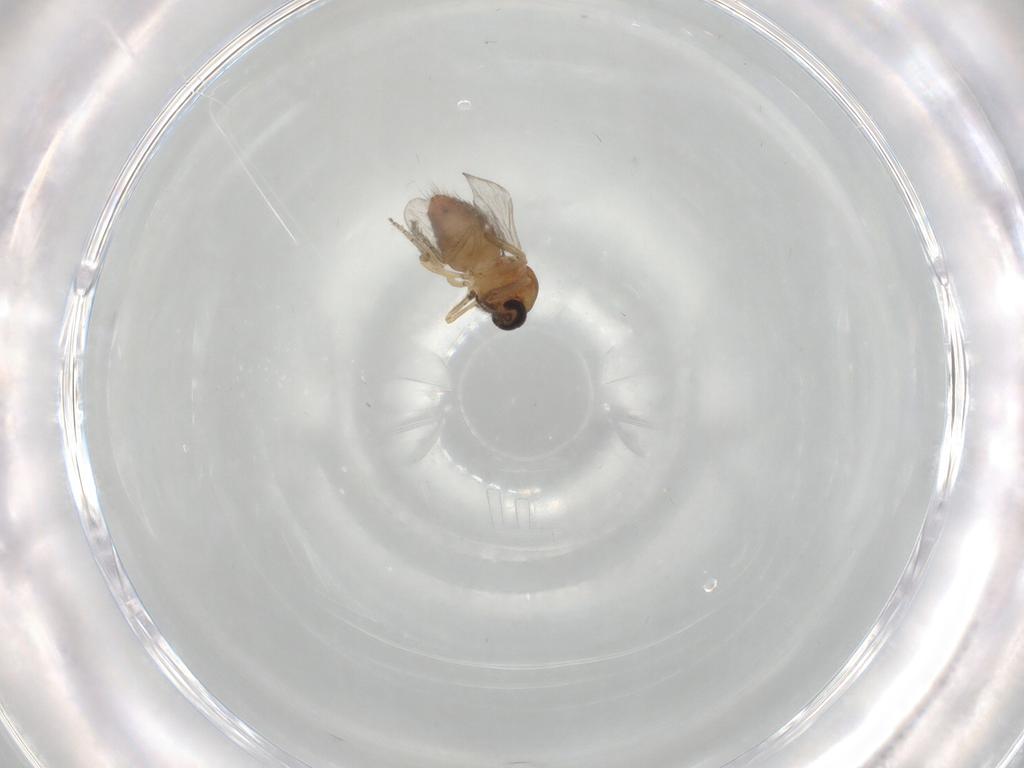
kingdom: Animalia
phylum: Arthropoda
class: Insecta
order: Diptera
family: Ceratopogonidae
